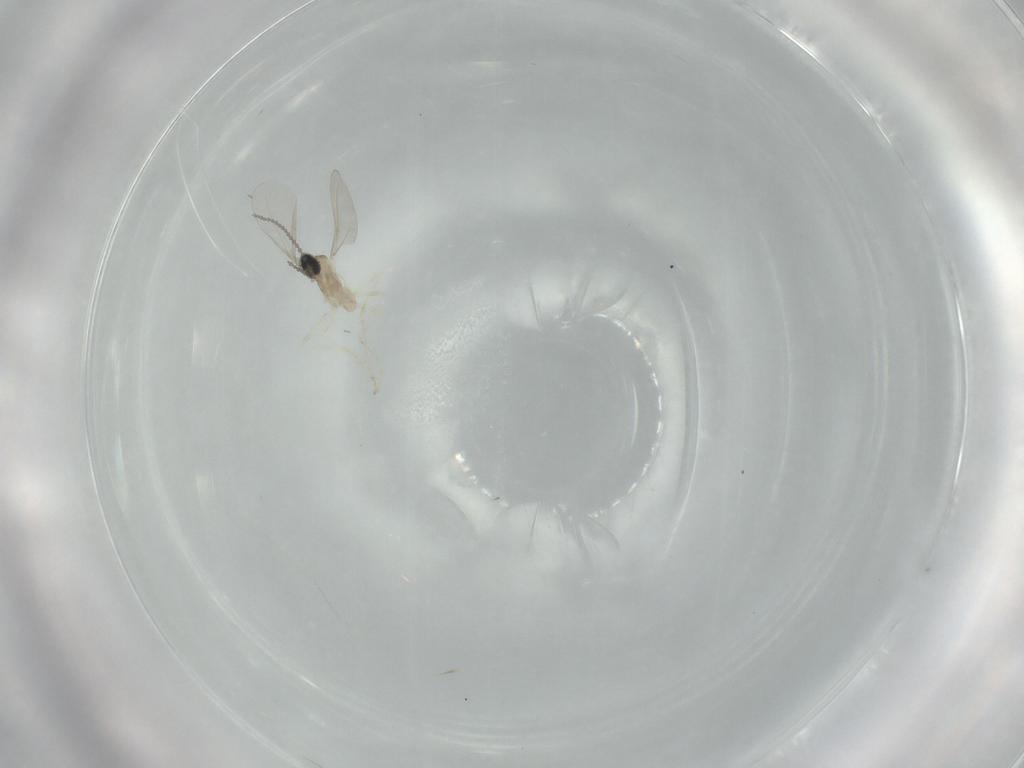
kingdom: Animalia
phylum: Arthropoda
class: Insecta
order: Diptera
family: Cecidomyiidae
